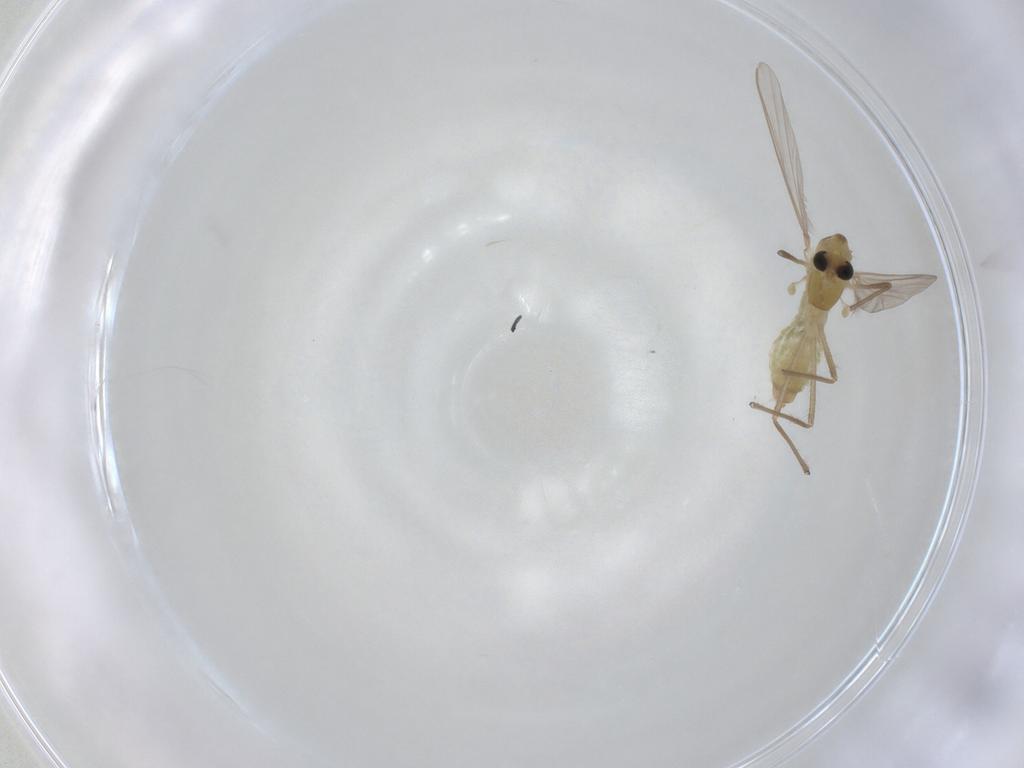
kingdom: Animalia
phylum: Arthropoda
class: Insecta
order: Diptera
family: Chironomidae
